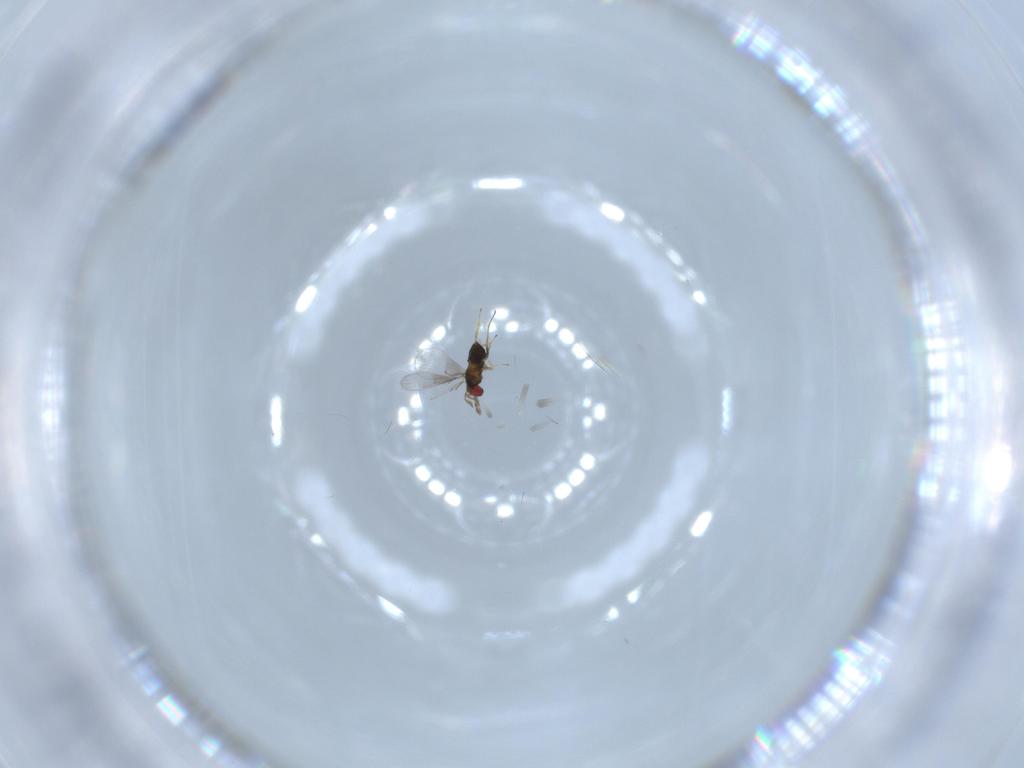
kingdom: Animalia
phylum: Arthropoda
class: Insecta
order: Hymenoptera
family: Trichogrammatidae
